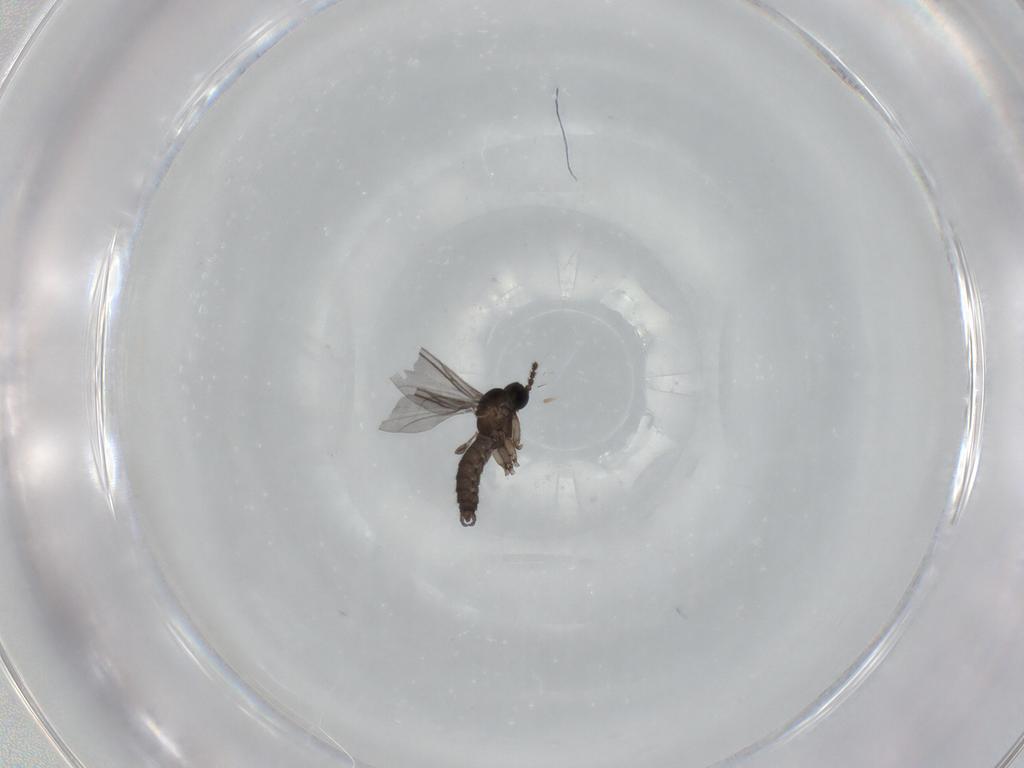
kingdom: Animalia
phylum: Arthropoda
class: Insecta
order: Diptera
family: Sciaridae
